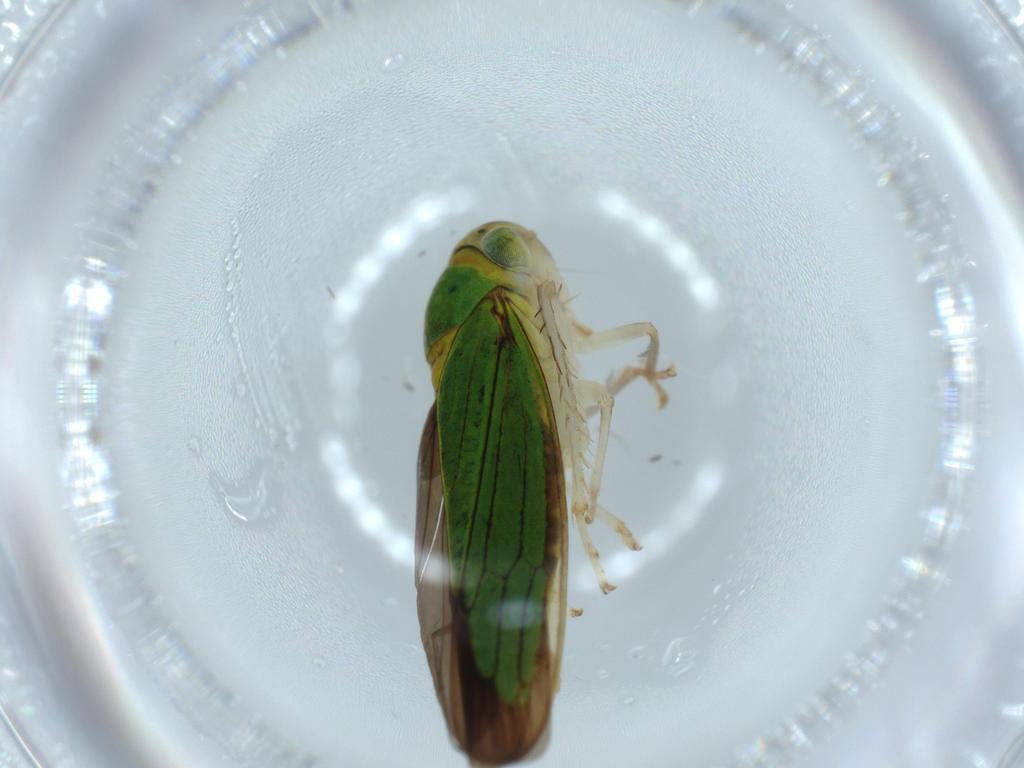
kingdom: Animalia
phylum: Arthropoda
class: Insecta
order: Hemiptera
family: Cicadellidae
